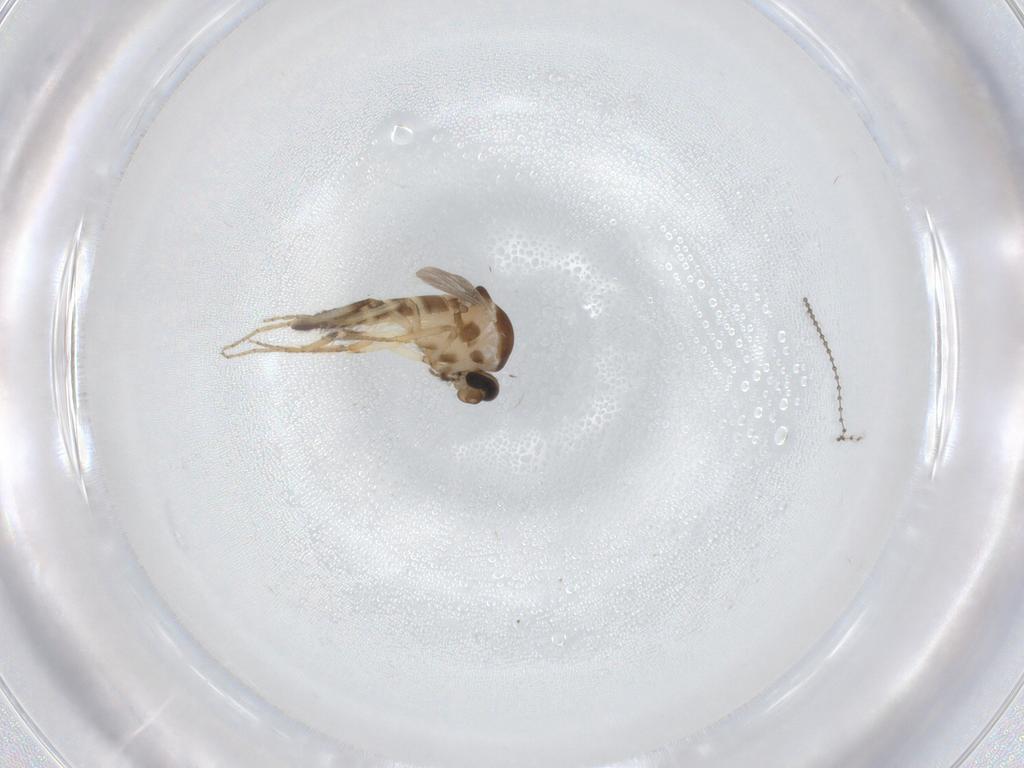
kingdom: Animalia
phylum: Arthropoda
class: Insecta
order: Diptera
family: Ceratopogonidae
